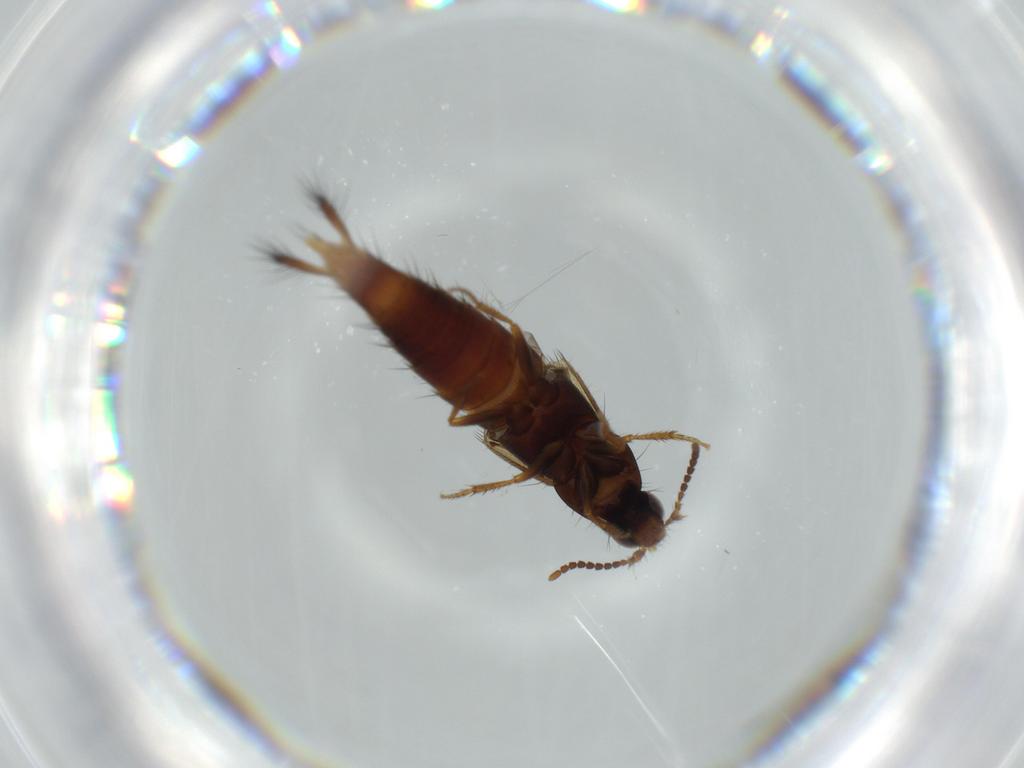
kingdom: Animalia
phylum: Arthropoda
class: Insecta
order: Coleoptera
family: Staphylinidae
